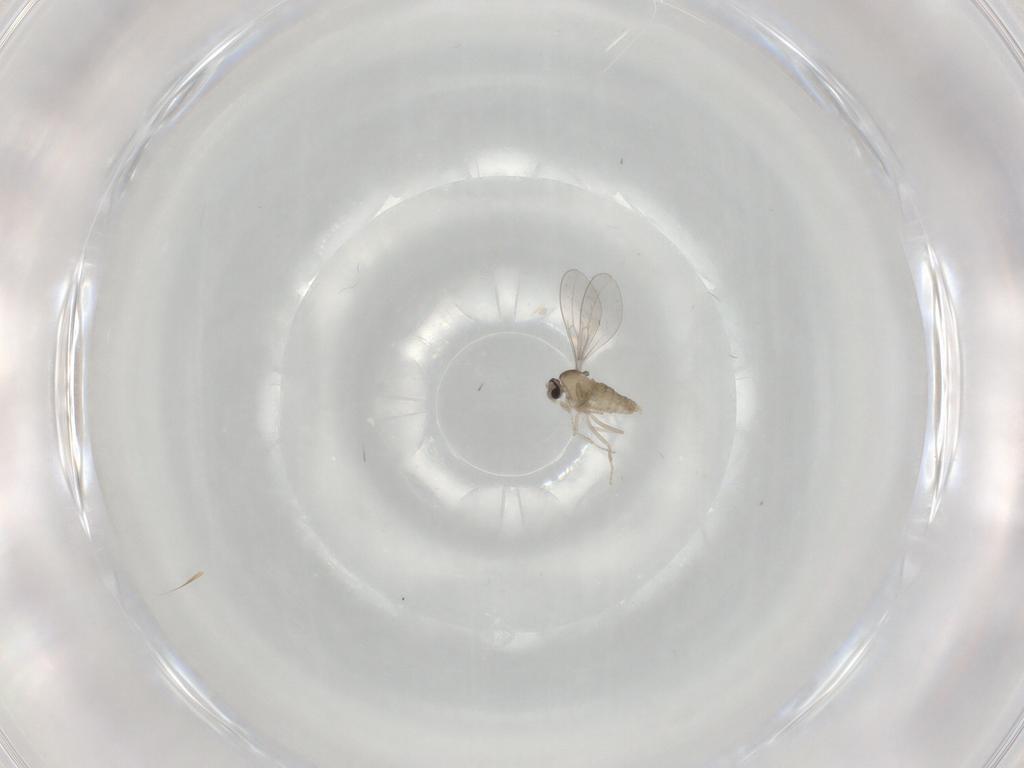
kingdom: Animalia
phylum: Arthropoda
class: Insecta
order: Diptera
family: Cecidomyiidae
